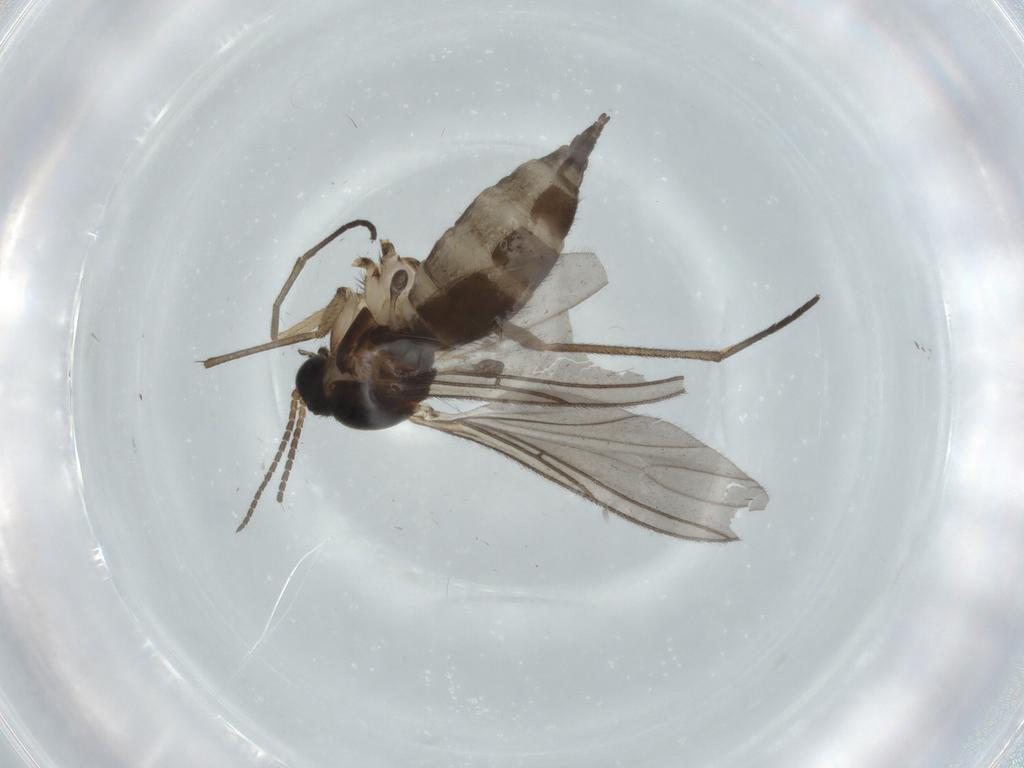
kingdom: Animalia
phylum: Arthropoda
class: Insecta
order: Diptera
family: Sciaridae
